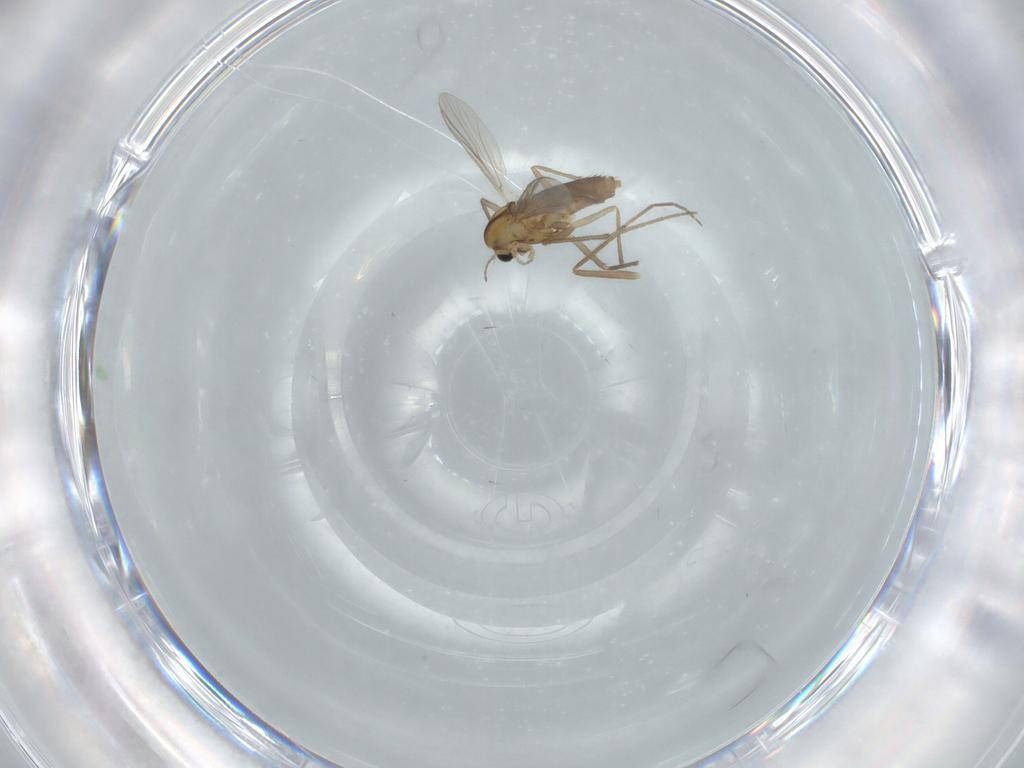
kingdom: Animalia
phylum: Arthropoda
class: Insecta
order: Diptera
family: Chironomidae
